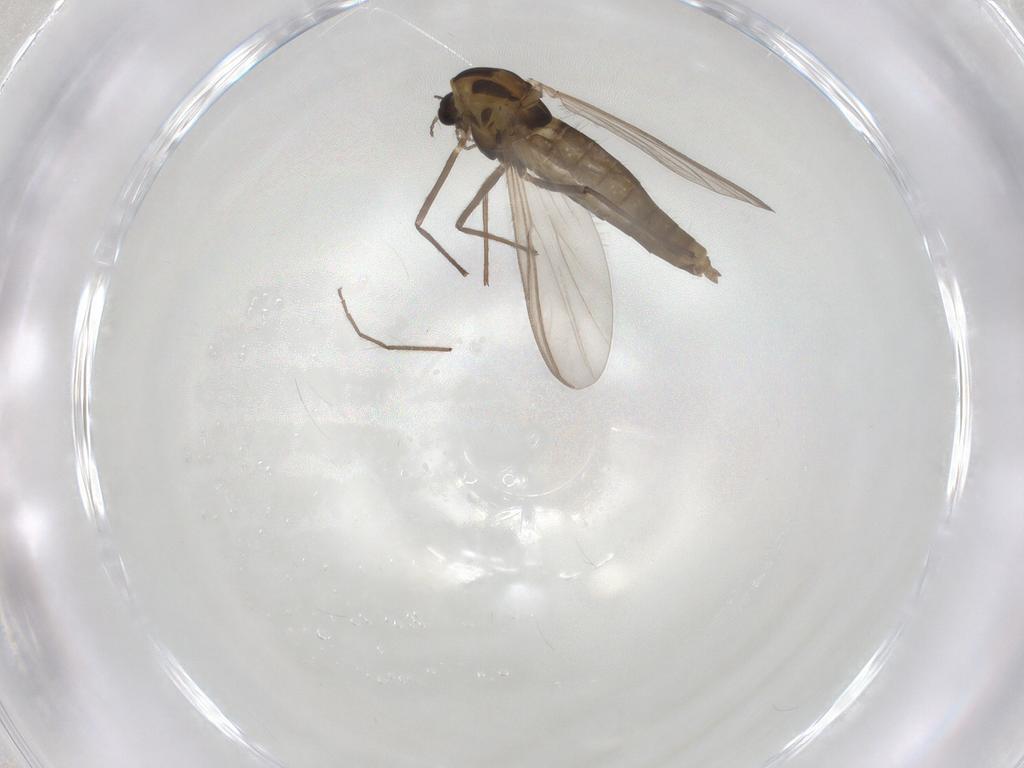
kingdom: Animalia
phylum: Arthropoda
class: Insecta
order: Diptera
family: Chironomidae
